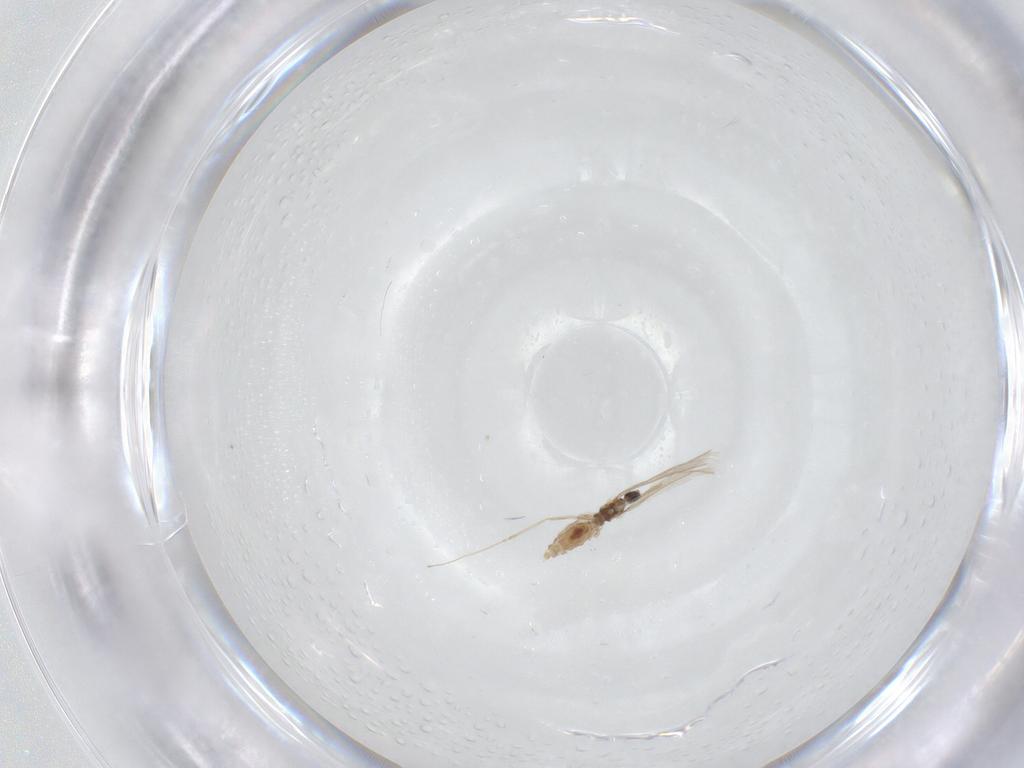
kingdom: Animalia
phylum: Arthropoda
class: Insecta
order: Diptera
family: Cecidomyiidae
